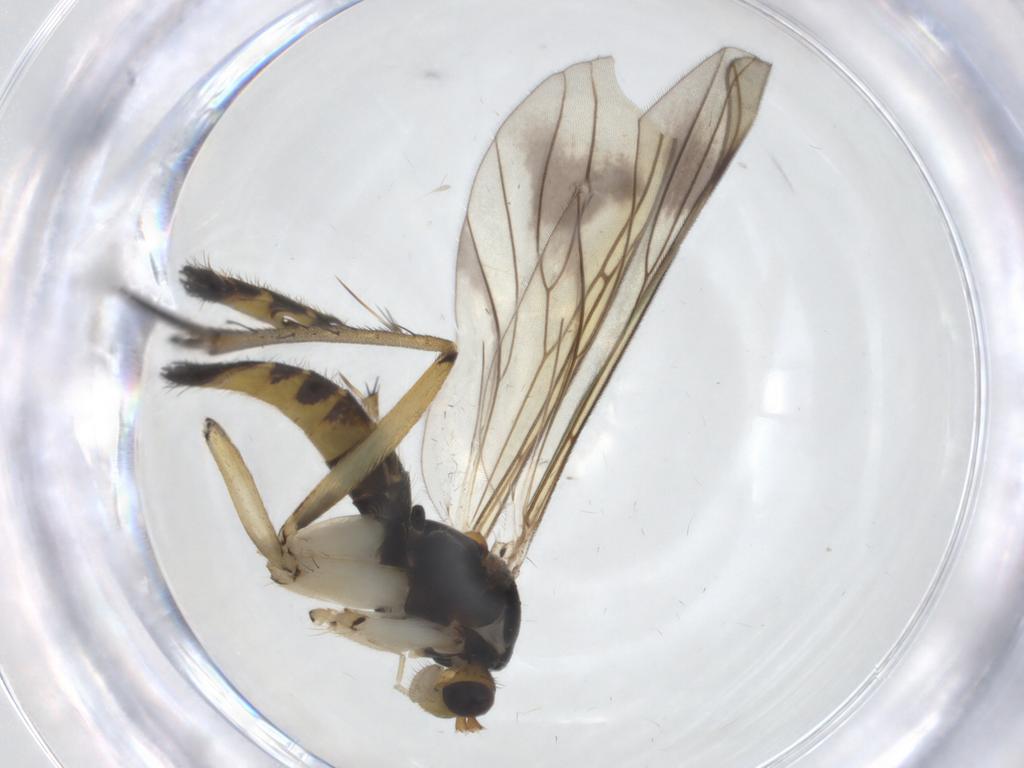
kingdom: Animalia
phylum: Arthropoda
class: Insecta
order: Diptera
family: Mycetophilidae
